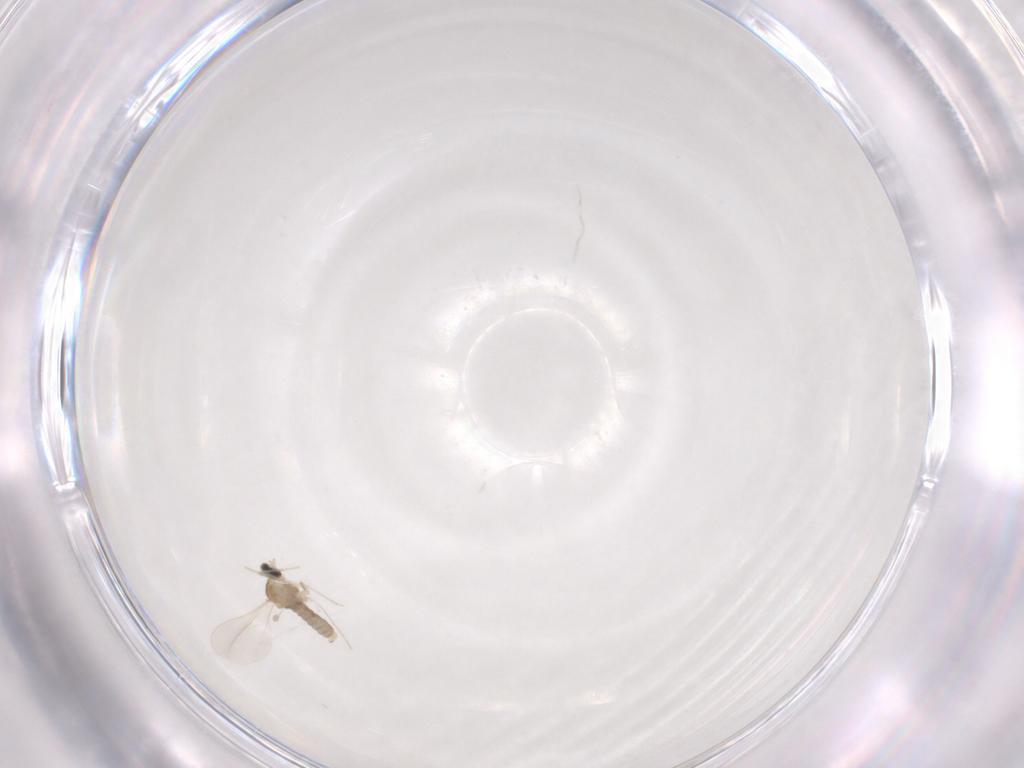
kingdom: Animalia
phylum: Arthropoda
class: Insecta
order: Diptera
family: Cecidomyiidae
